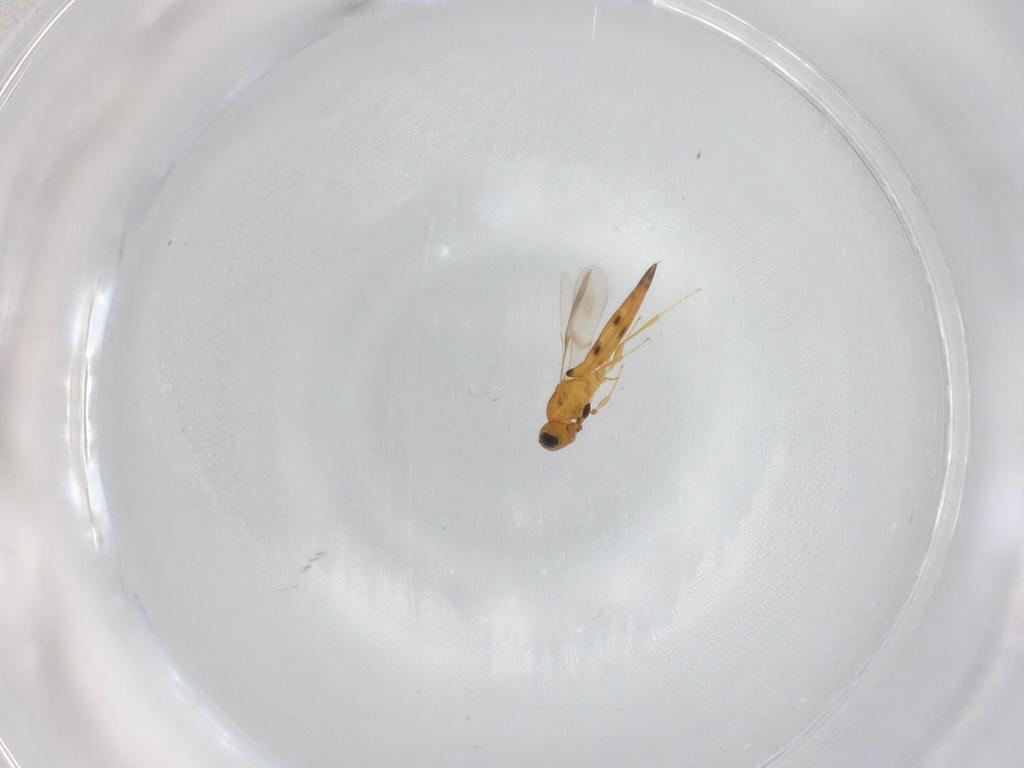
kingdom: Animalia
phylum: Arthropoda
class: Insecta
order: Hymenoptera
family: Scelionidae
